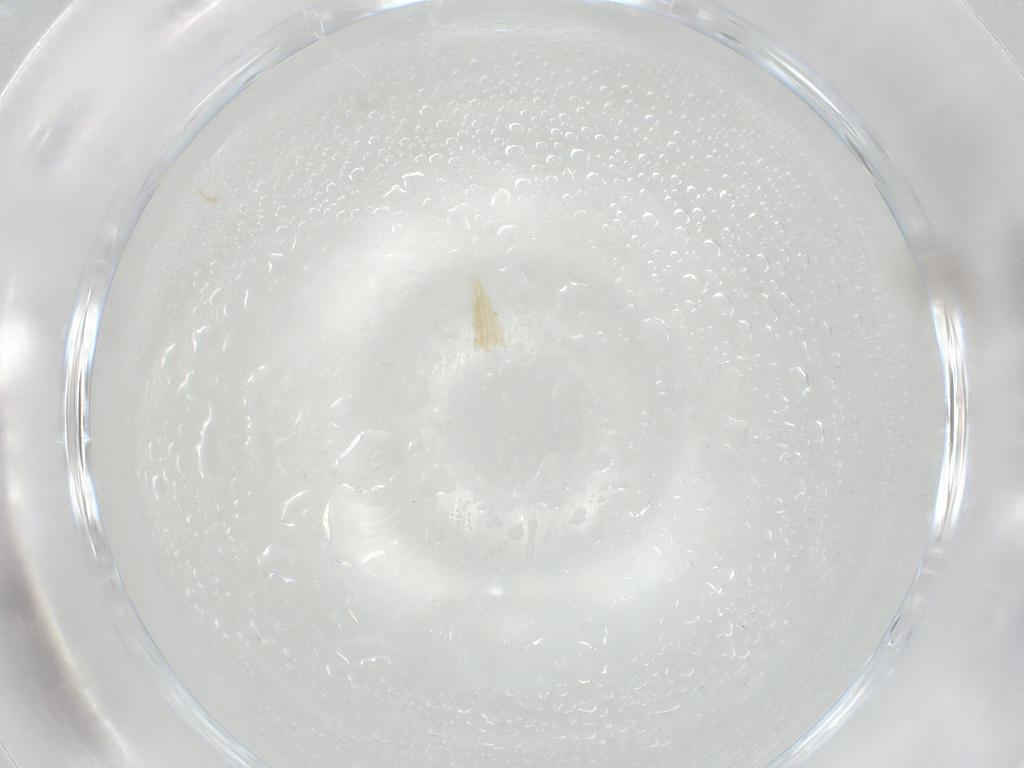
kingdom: Animalia
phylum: Arthropoda
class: Insecta
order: Diptera
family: Cecidomyiidae
